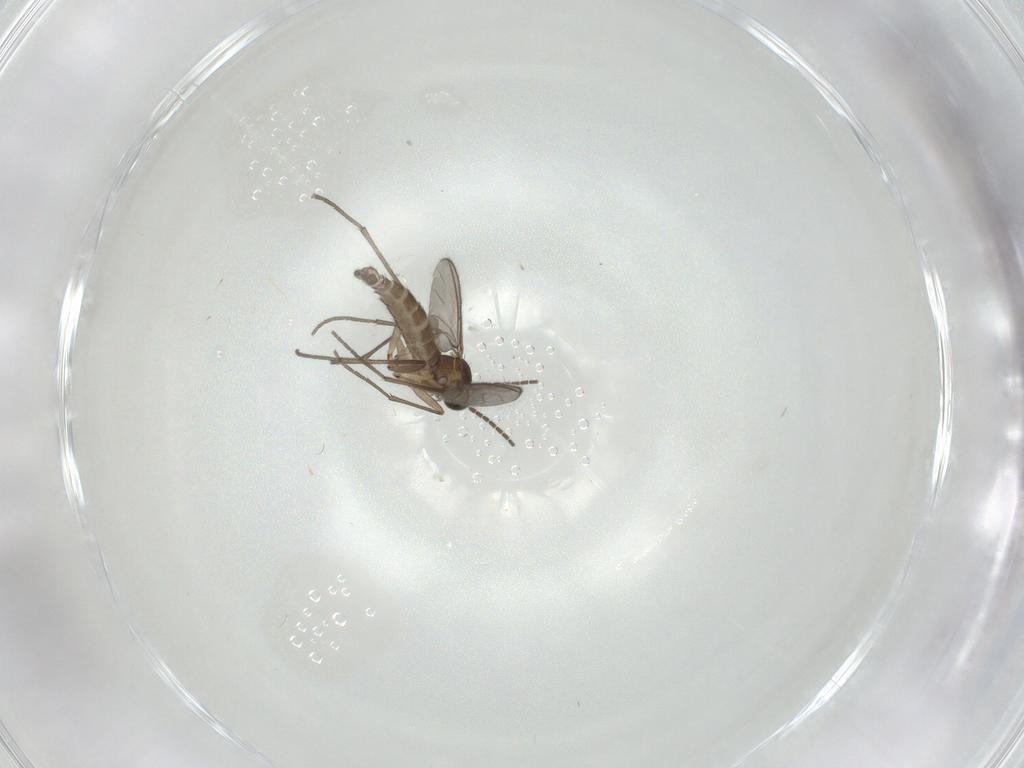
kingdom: Animalia
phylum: Arthropoda
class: Insecta
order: Diptera
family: Sciaridae
